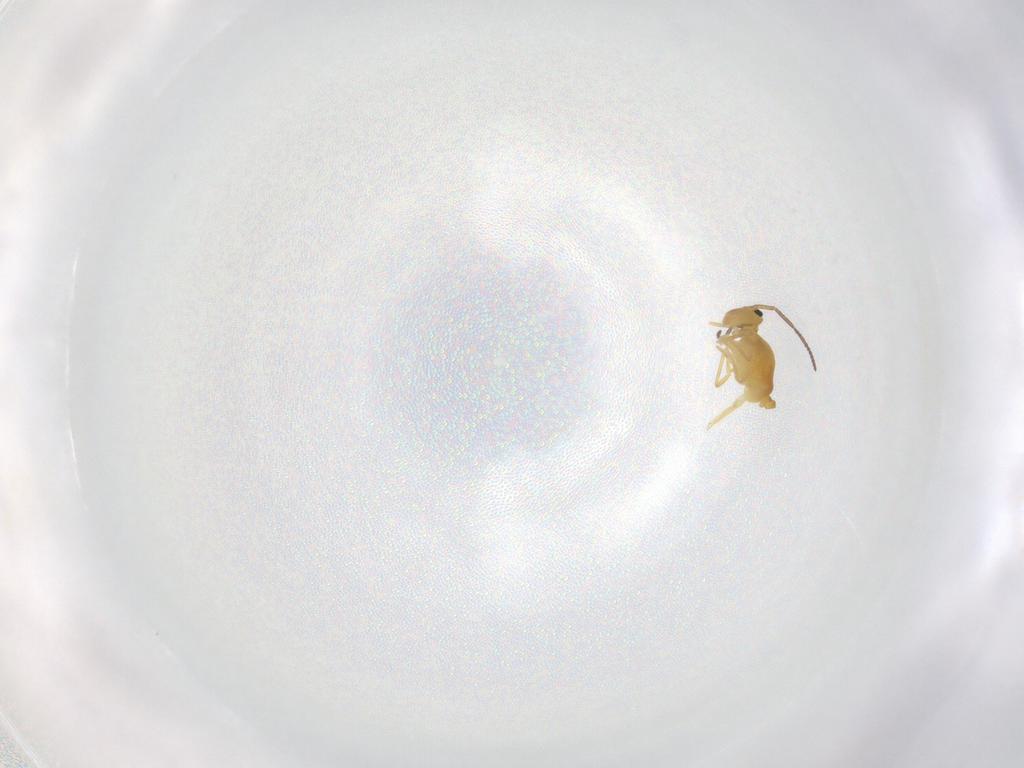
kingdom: Animalia
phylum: Arthropoda
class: Collembola
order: Symphypleona
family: Bourletiellidae
